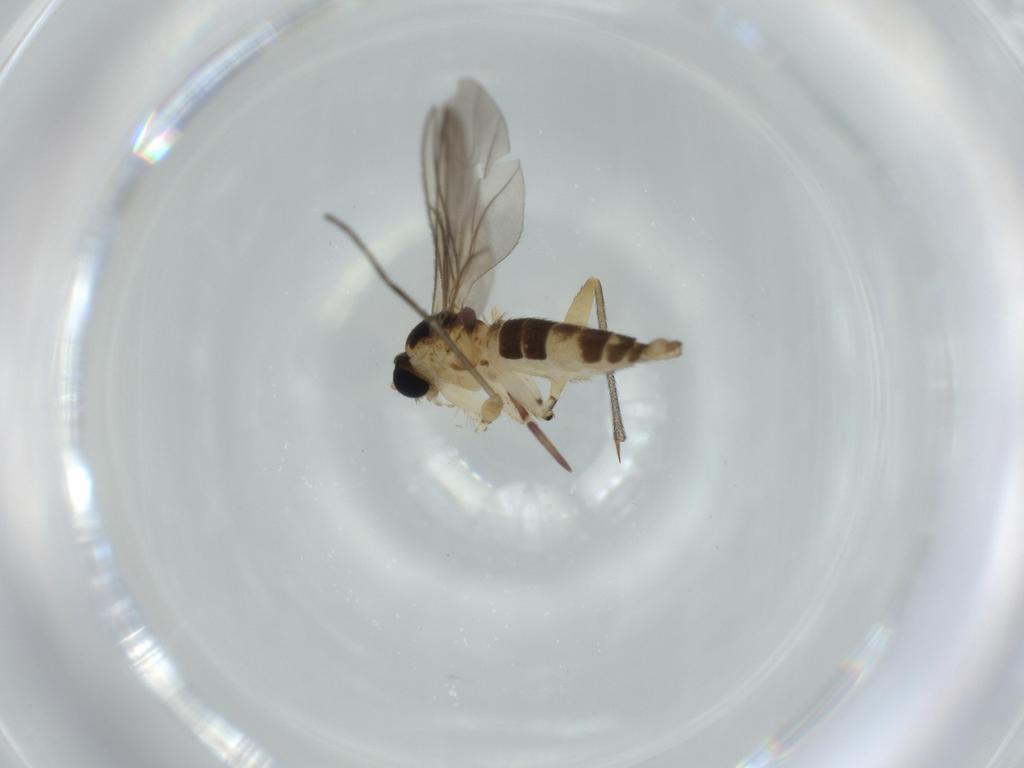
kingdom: Animalia
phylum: Arthropoda
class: Insecta
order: Diptera
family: Sciaridae
